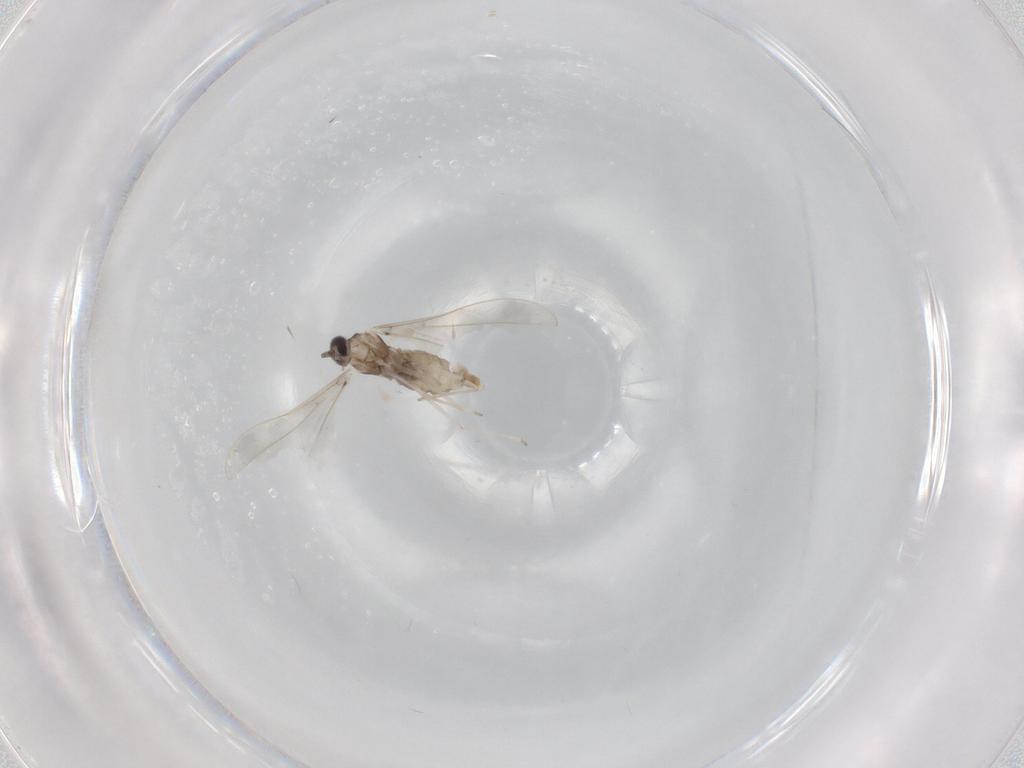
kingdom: Animalia
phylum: Arthropoda
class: Insecta
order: Diptera
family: Cecidomyiidae
